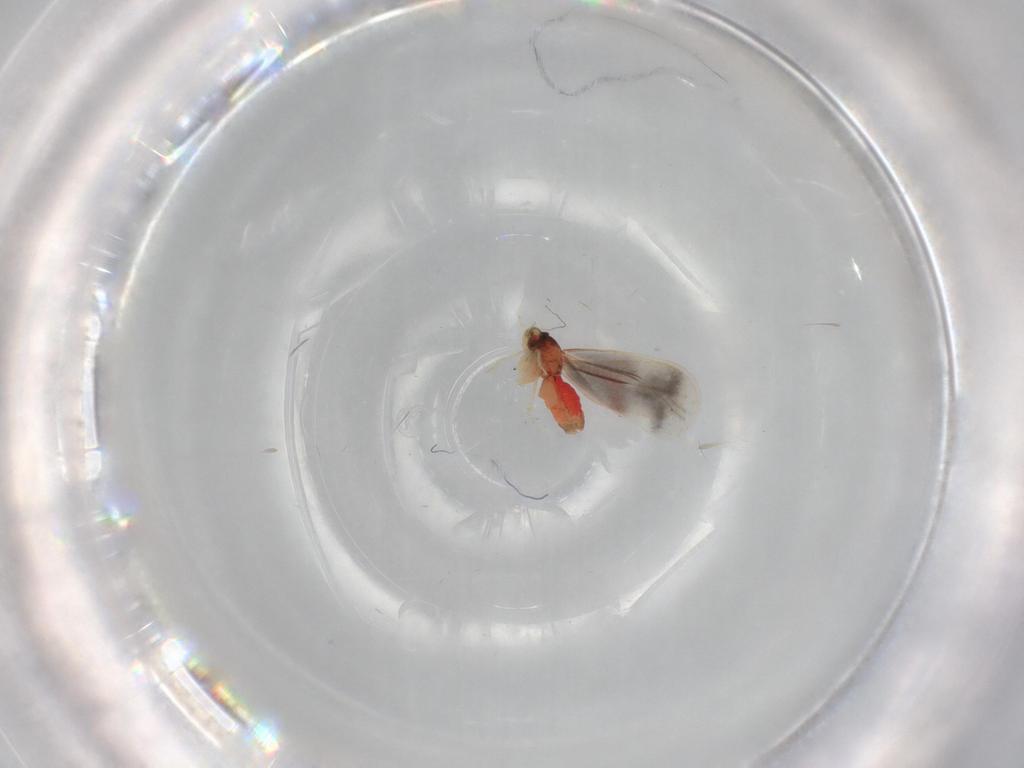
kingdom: Animalia
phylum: Arthropoda
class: Insecta
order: Hemiptera
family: Aleyrodidae
